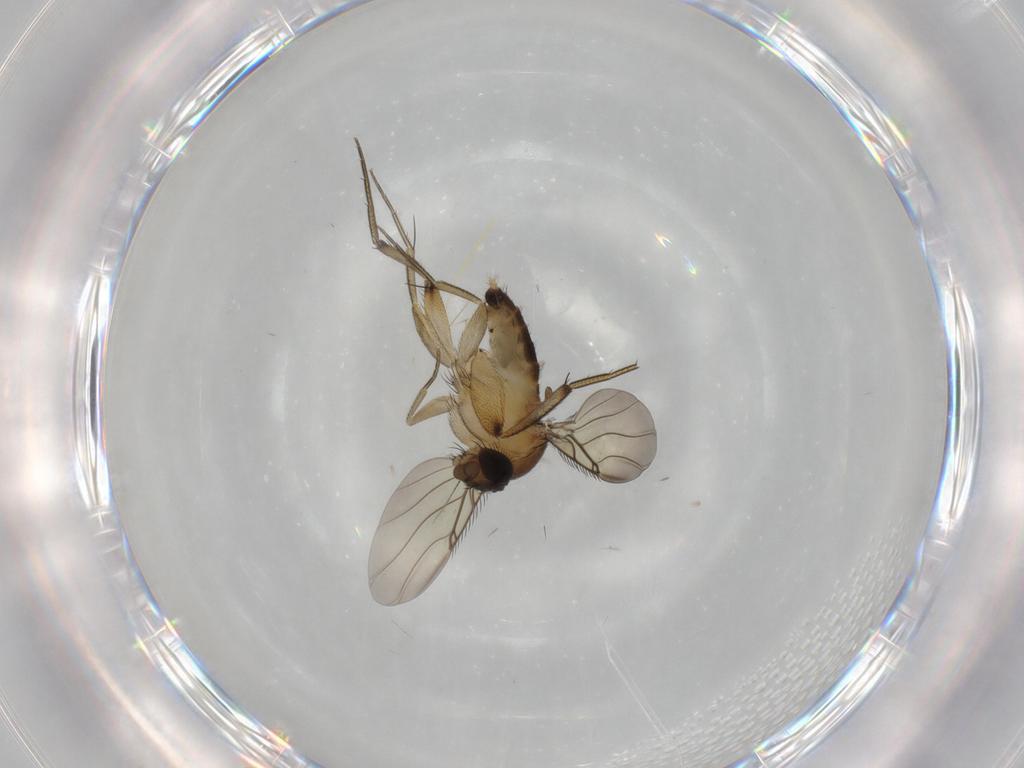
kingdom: Animalia
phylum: Arthropoda
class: Insecta
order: Diptera
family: Phoridae
